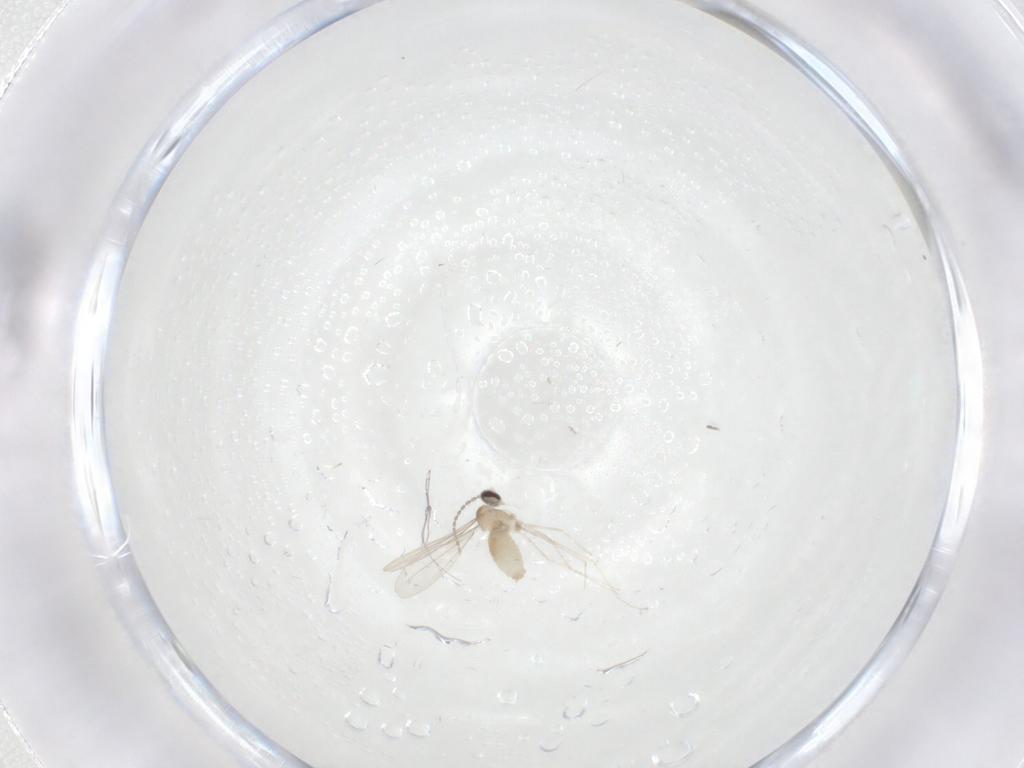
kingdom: Animalia
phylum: Arthropoda
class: Insecta
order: Diptera
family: Cecidomyiidae
